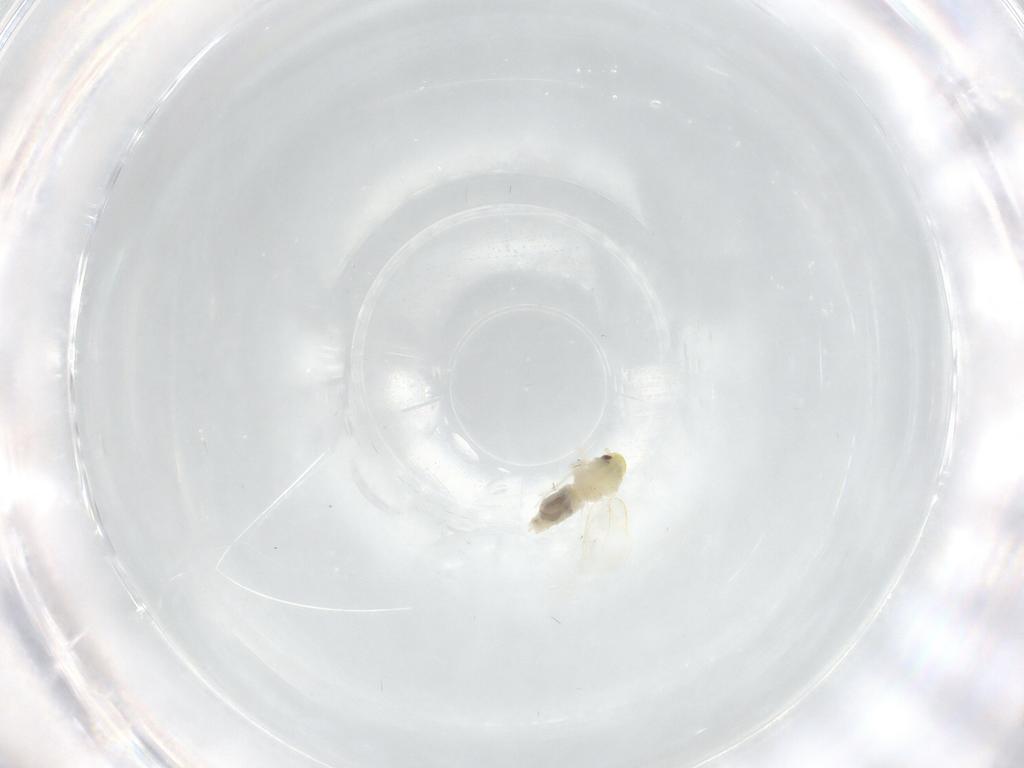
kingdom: Animalia
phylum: Arthropoda
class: Insecta
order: Hemiptera
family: Aleyrodidae
